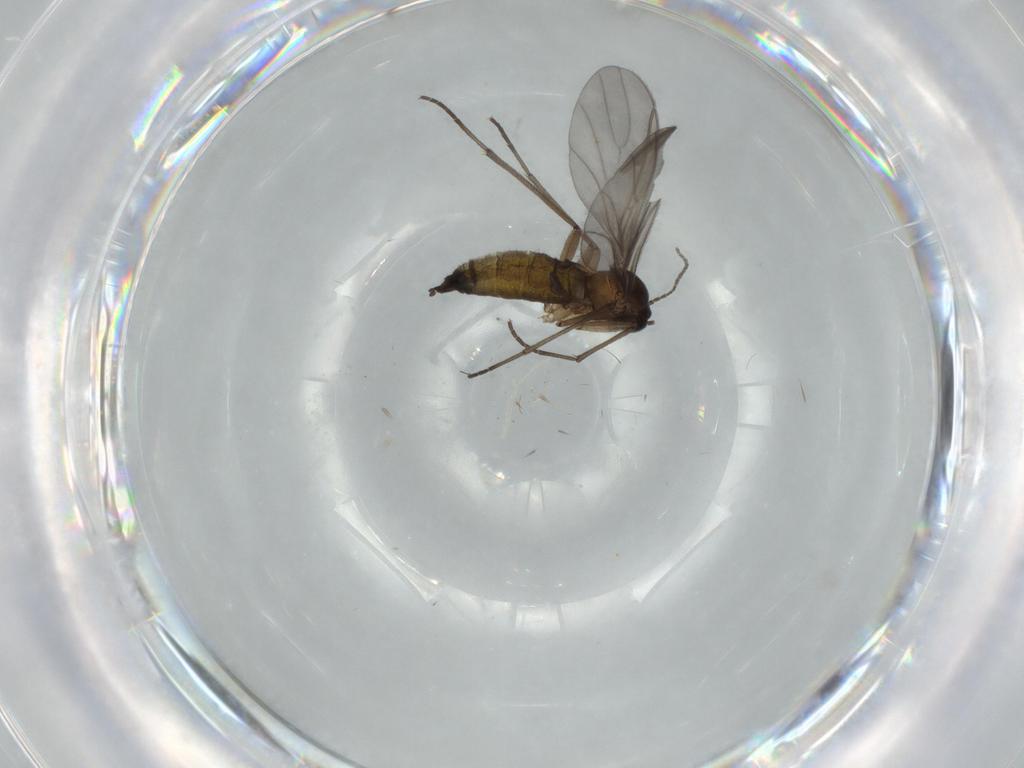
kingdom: Animalia
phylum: Arthropoda
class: Insecta
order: Diptera
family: Sciaridae
